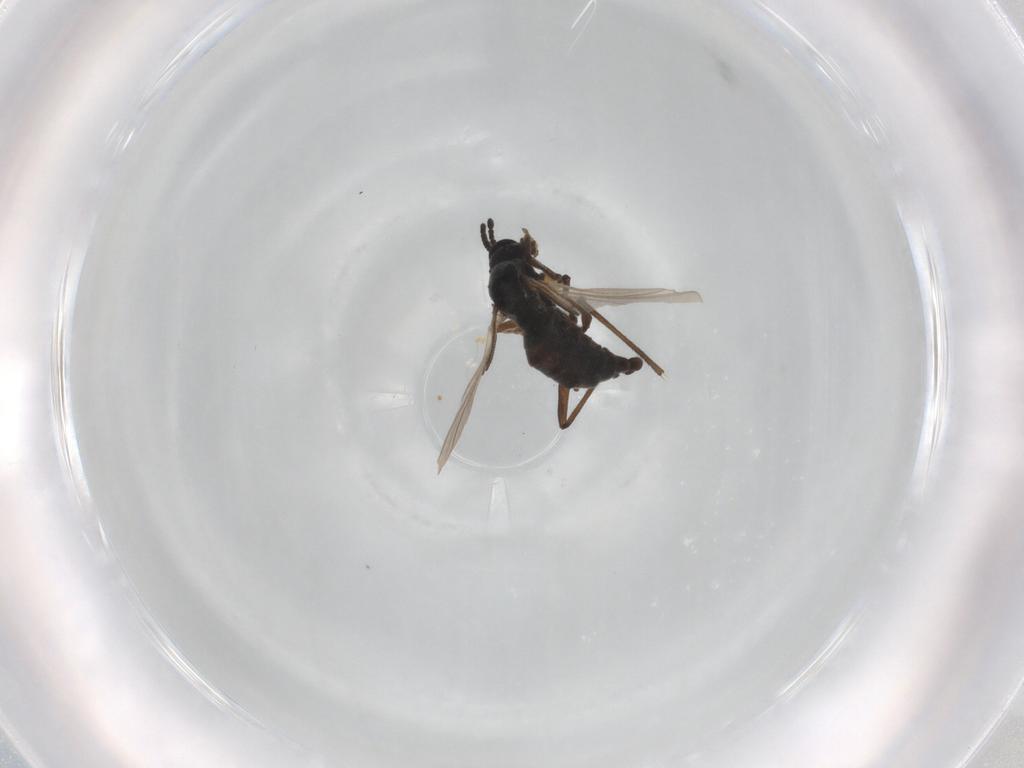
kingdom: Animalia
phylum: Arthropoda
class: Insecta
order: Diptera
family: Sciaridae
